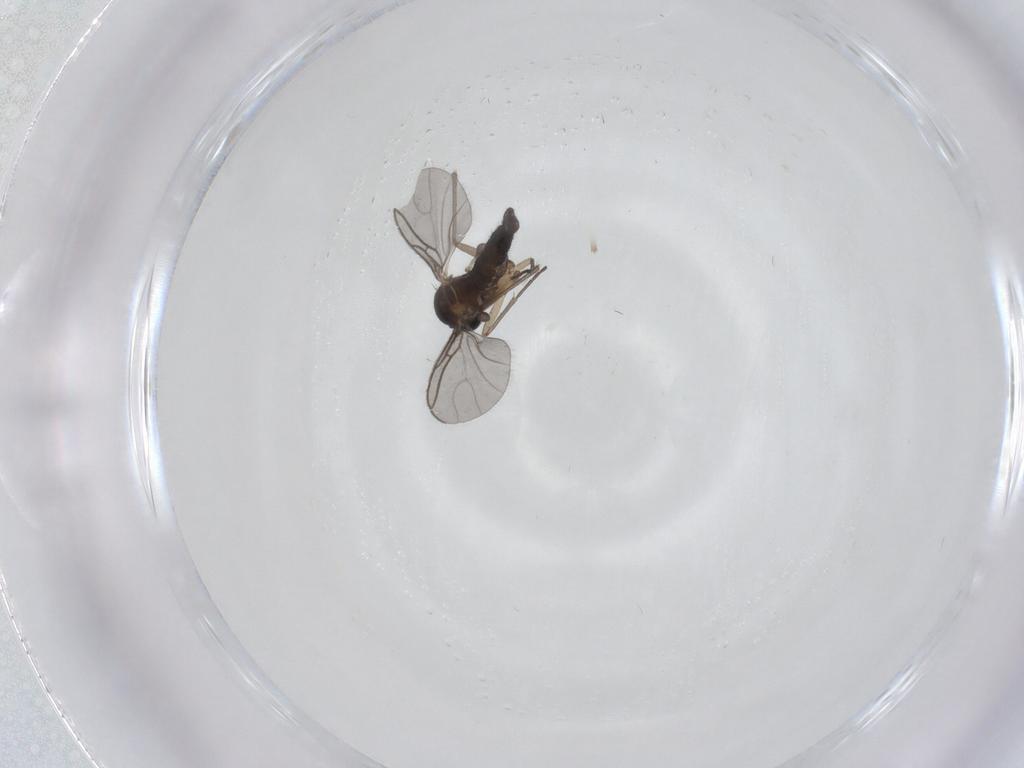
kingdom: Animalia
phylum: Arthropoda
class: Insecta
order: Diptera
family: Sciaridae
